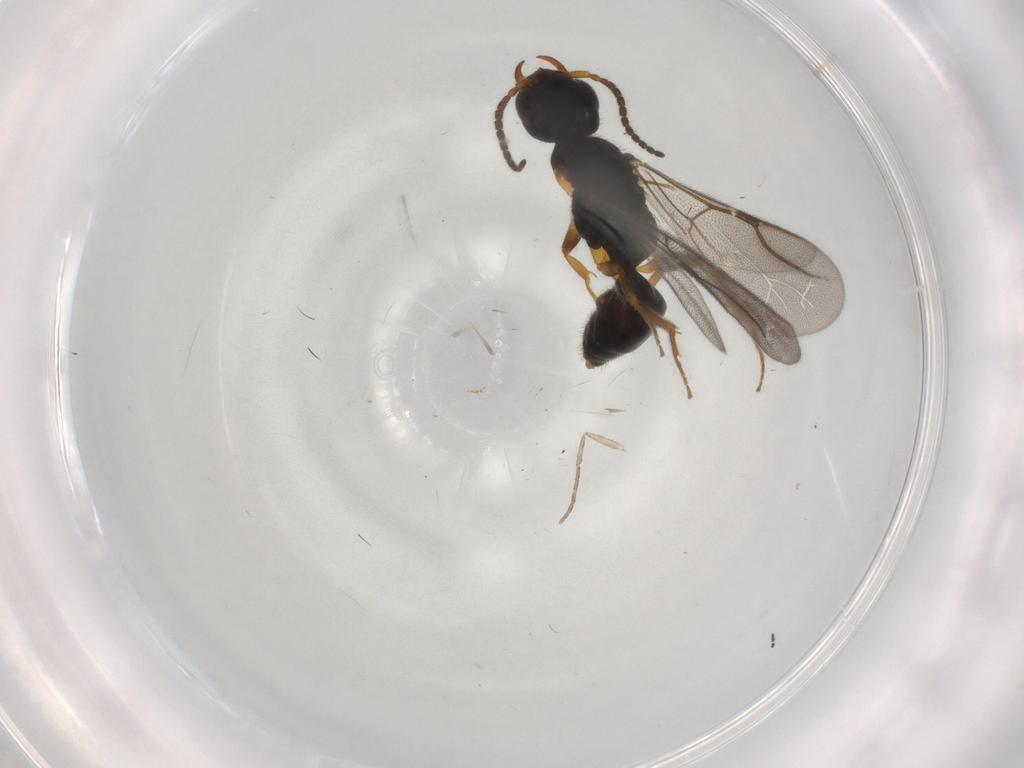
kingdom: Animalia
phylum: Arthropoda
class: Insecta
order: Hymenoptera
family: Bethylidae
